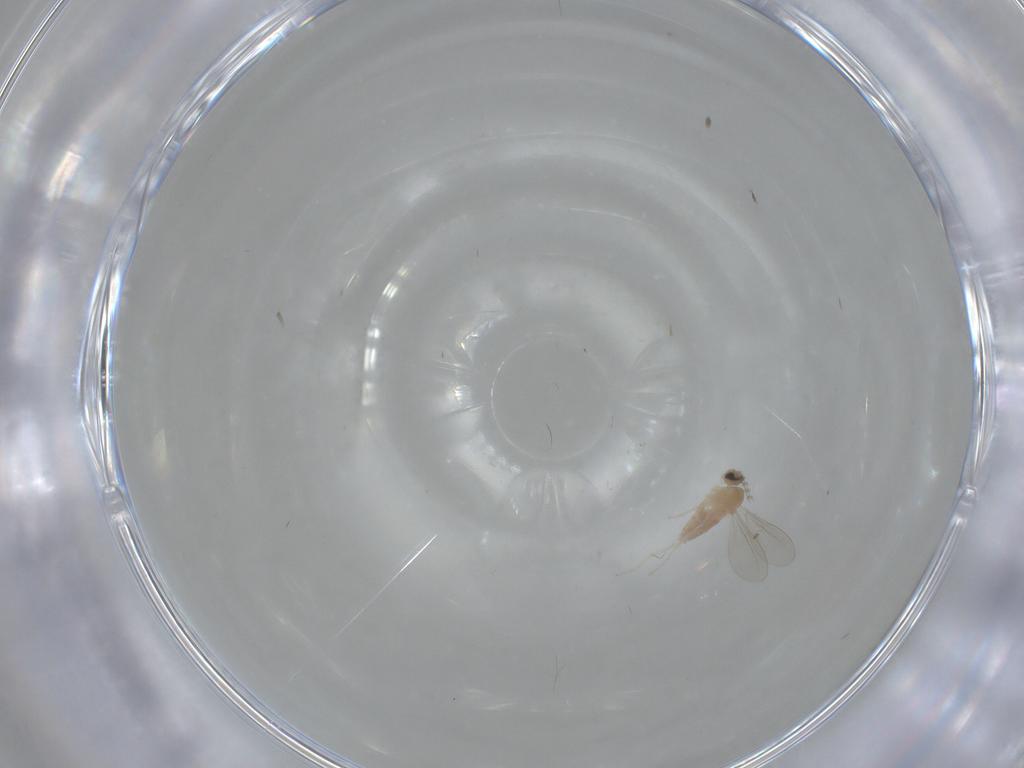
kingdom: Animalia
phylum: Arthropoda
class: Insecta
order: Diptera
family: Cecidomyiidae
